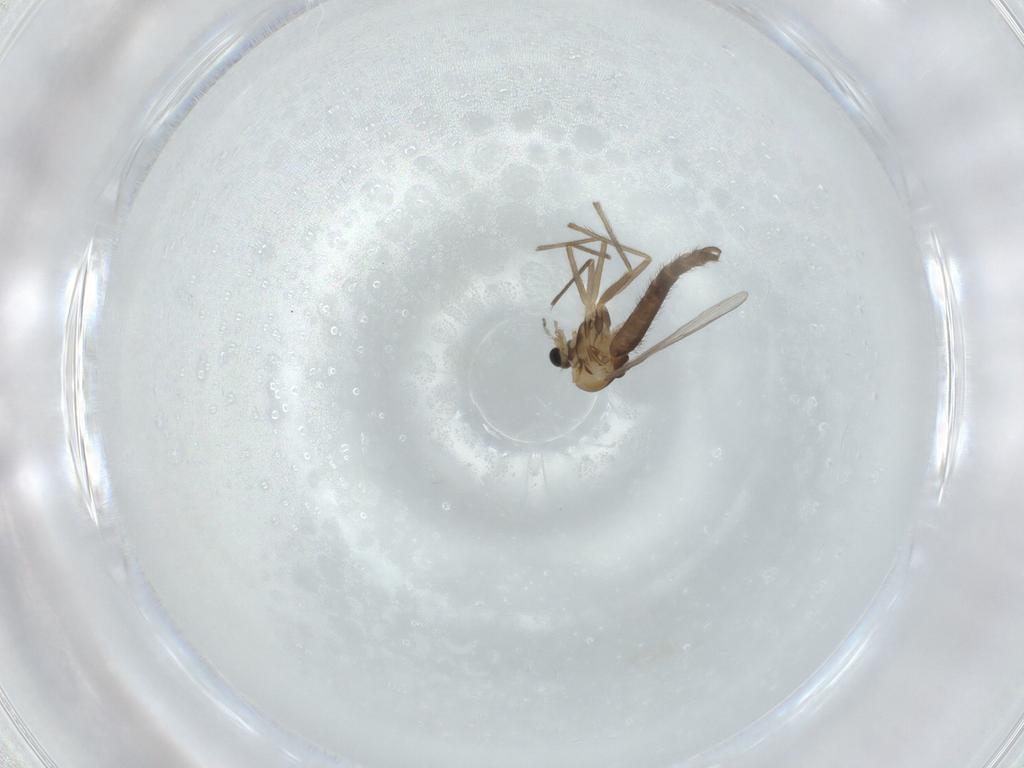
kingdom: Animalia
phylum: Arthropoda
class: Insecta
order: Diptera
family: Chironomidae
